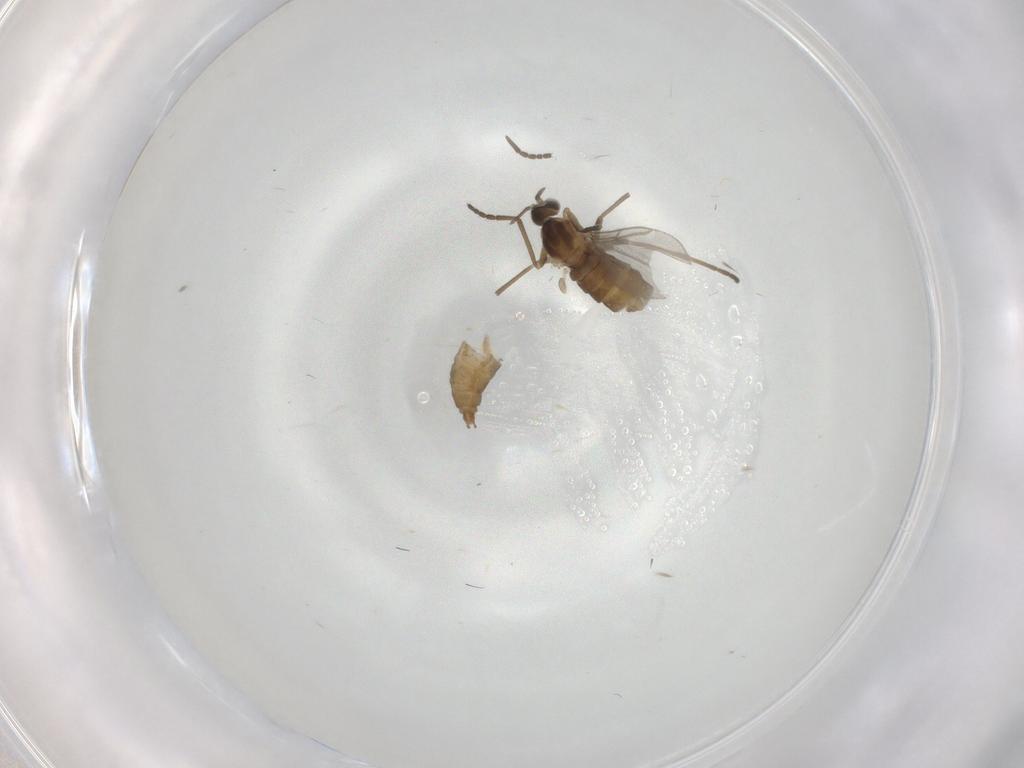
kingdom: Animalia
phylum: Arthropoda
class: Insecta
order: Diptera
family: Cecidomyiidae
